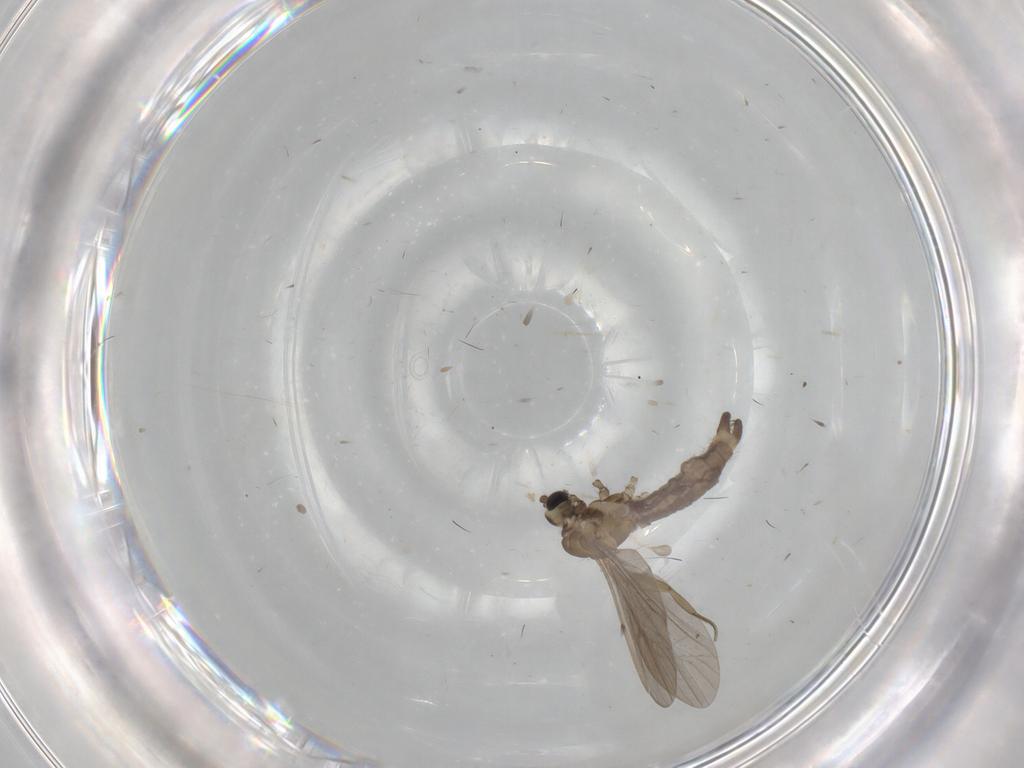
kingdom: Animalia
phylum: Arthropoda
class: Insecta
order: Diptera
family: Limoniidae
